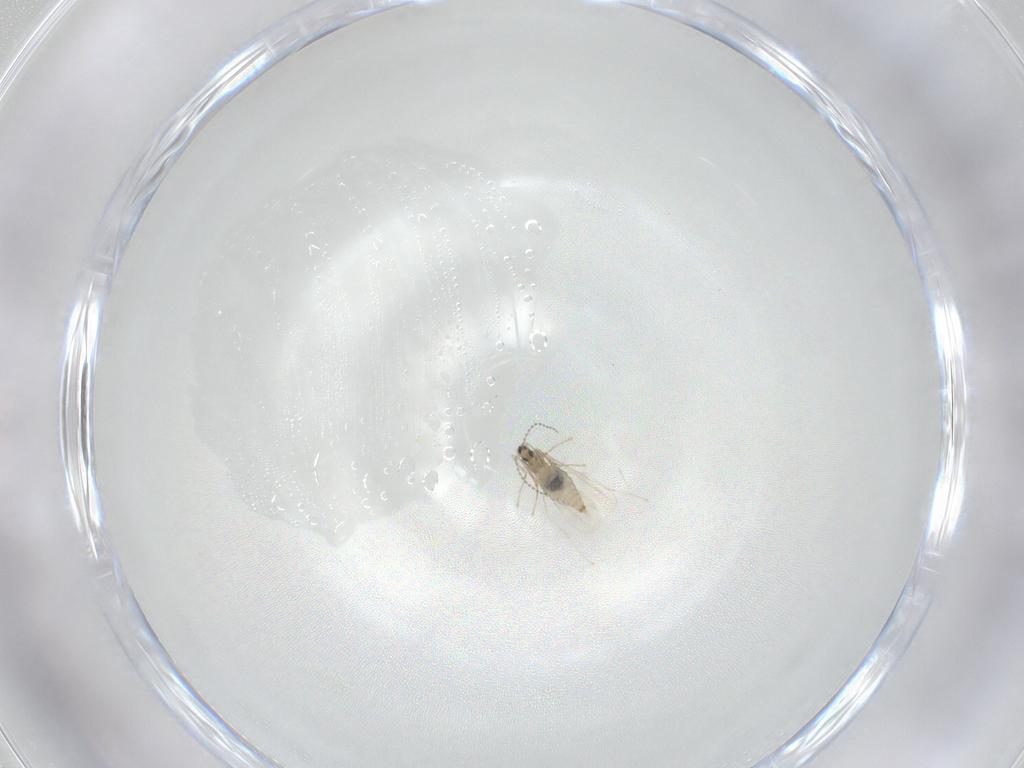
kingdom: Animalia
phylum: Arthropoda
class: Insecta
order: Diptera
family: Cecidomyiidae
